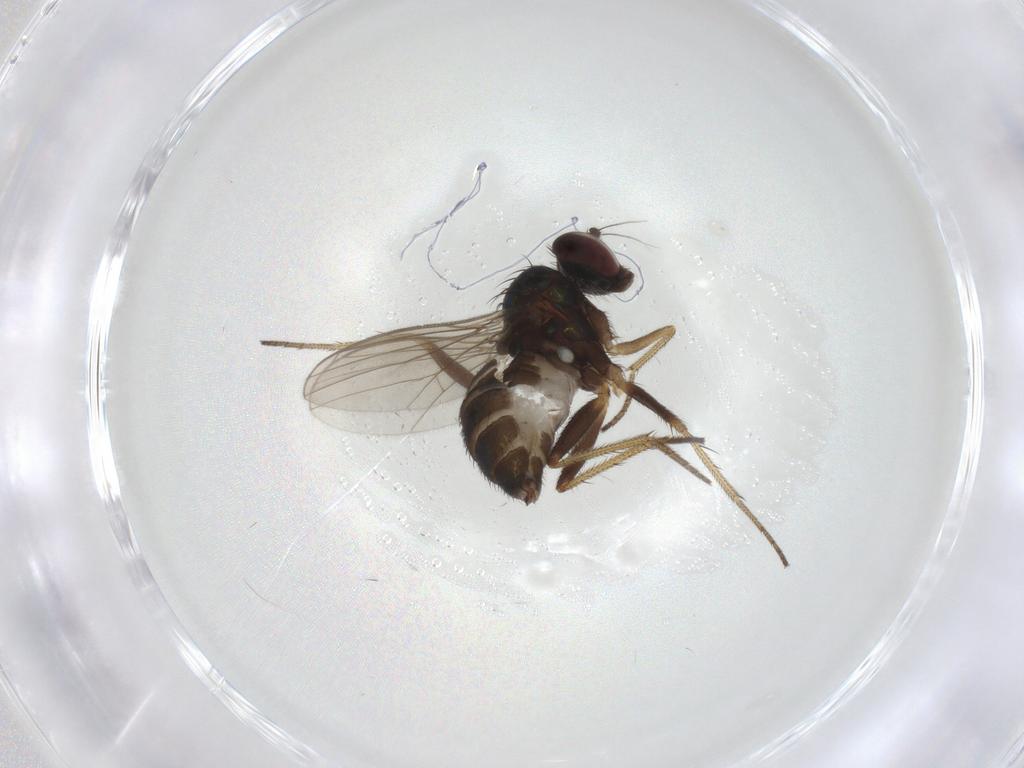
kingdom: Animalia
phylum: Arthropoda
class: Insecta
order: Diptera
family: Dolichopodidae
